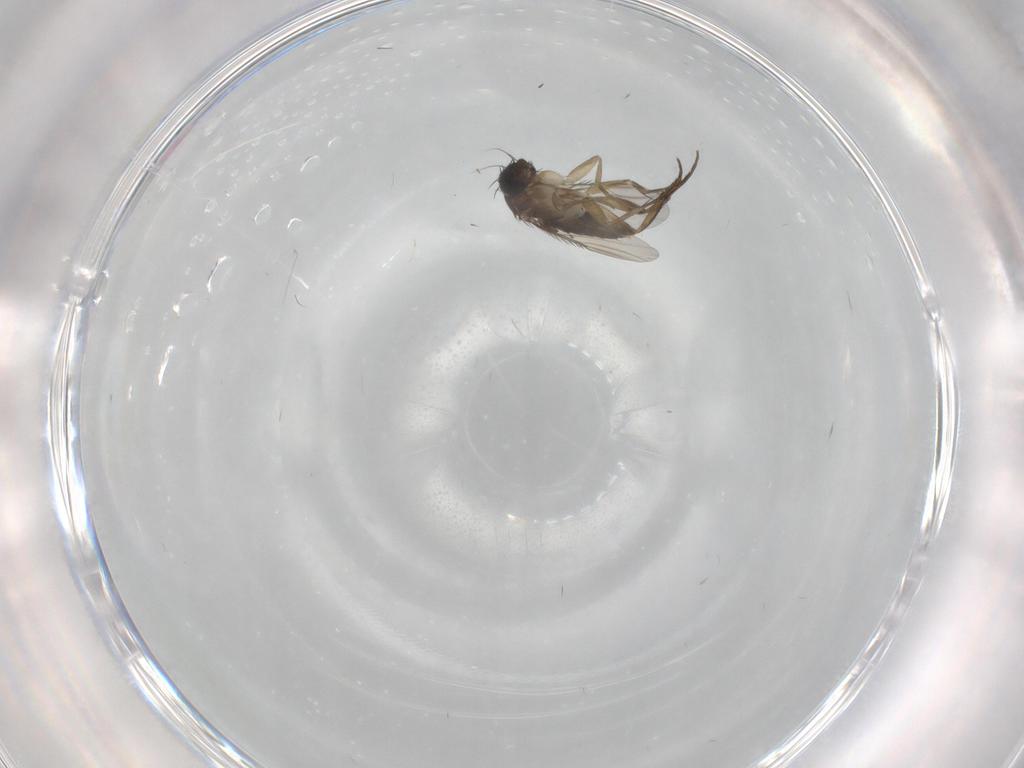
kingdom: Animalia
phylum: Arthropoda
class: Insecta
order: Diptera
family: Phoridae
